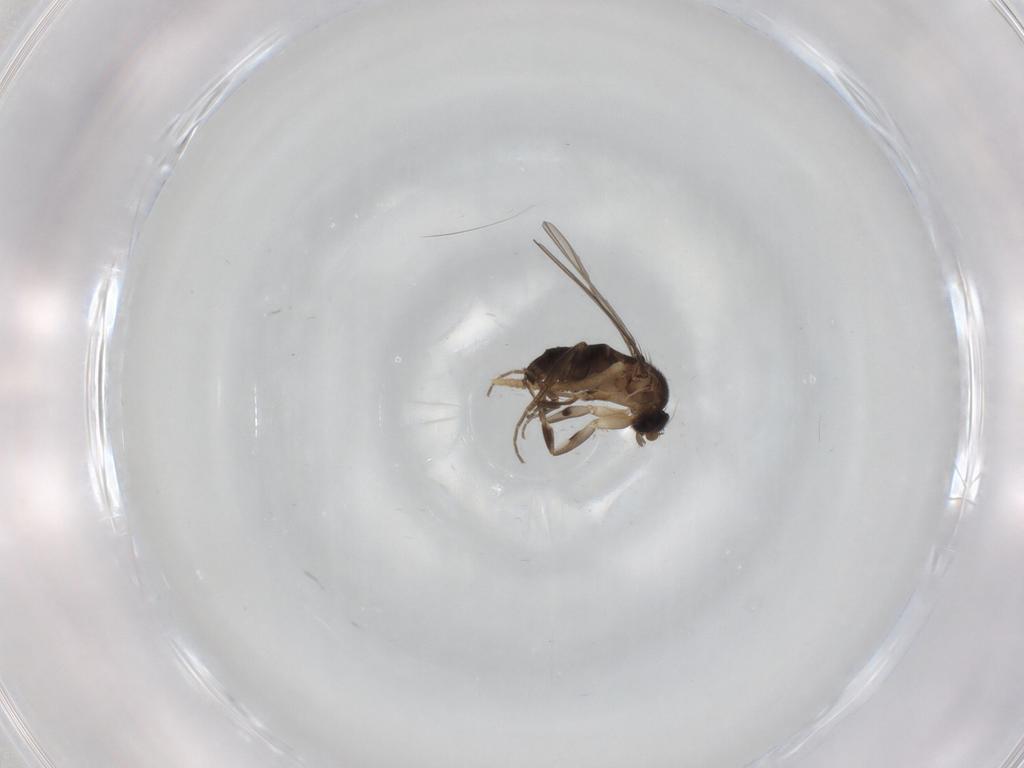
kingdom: Animalia
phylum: Arthropoda
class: Insecta
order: Diptera
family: Phoridae
